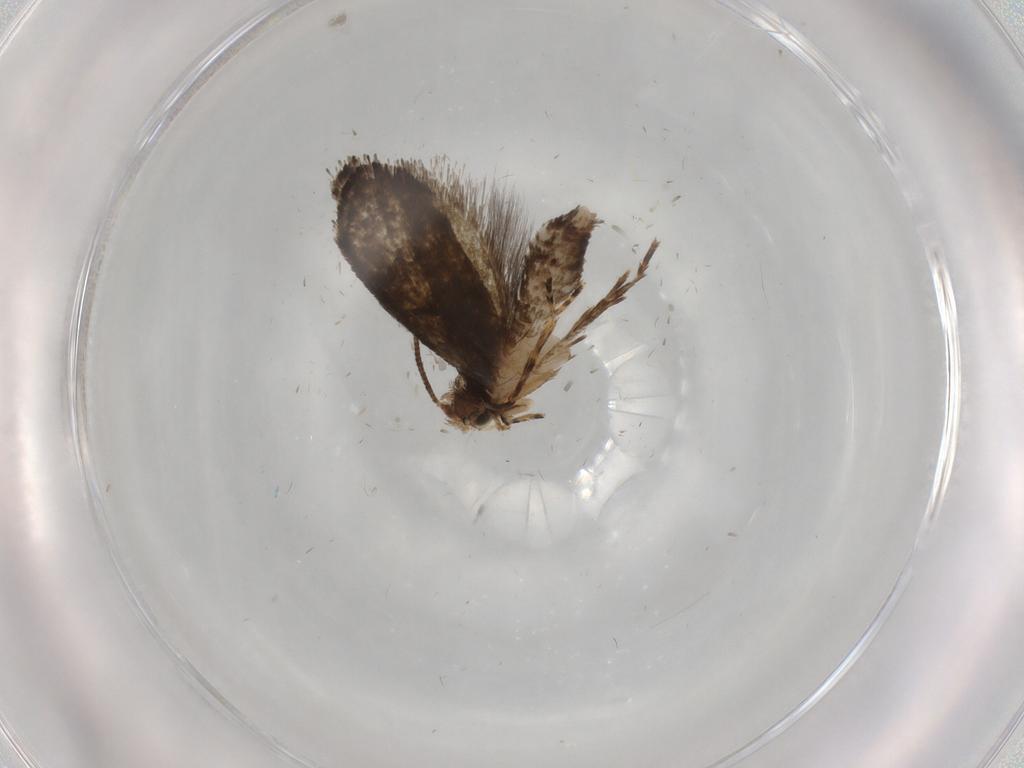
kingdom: Animalia
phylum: Arthropoda
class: Insecta
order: Lepidoptera
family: Tineidae
